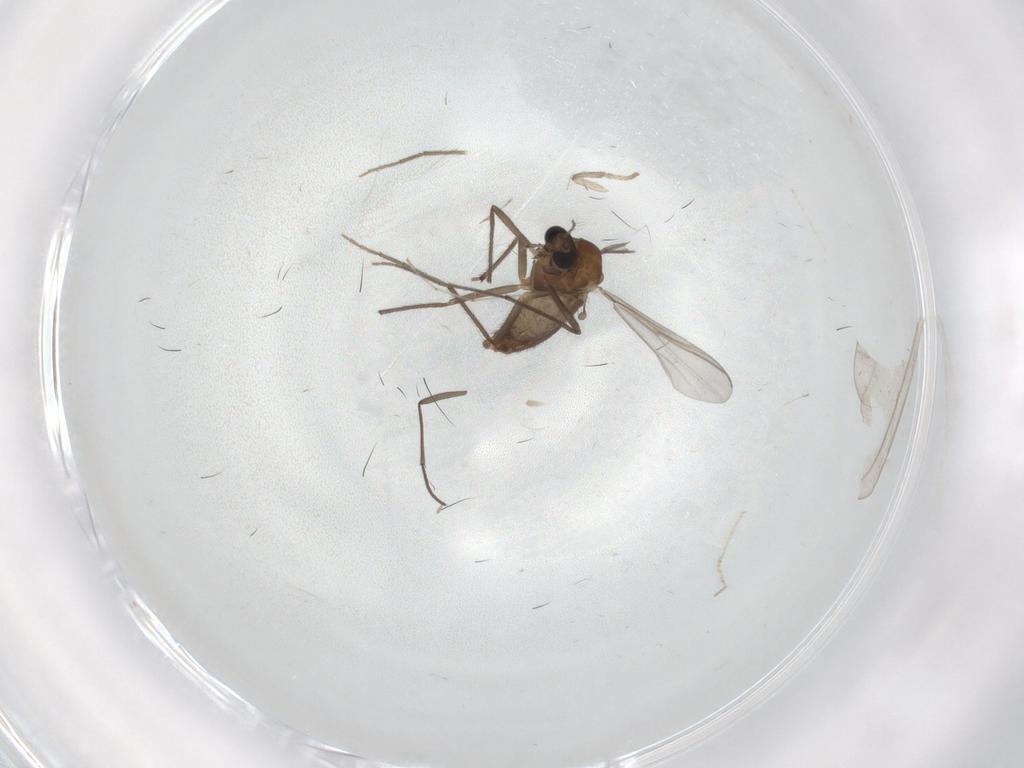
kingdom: Animalia
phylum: Arthropoda
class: Insecta
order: Diptera
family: Chironomidae
